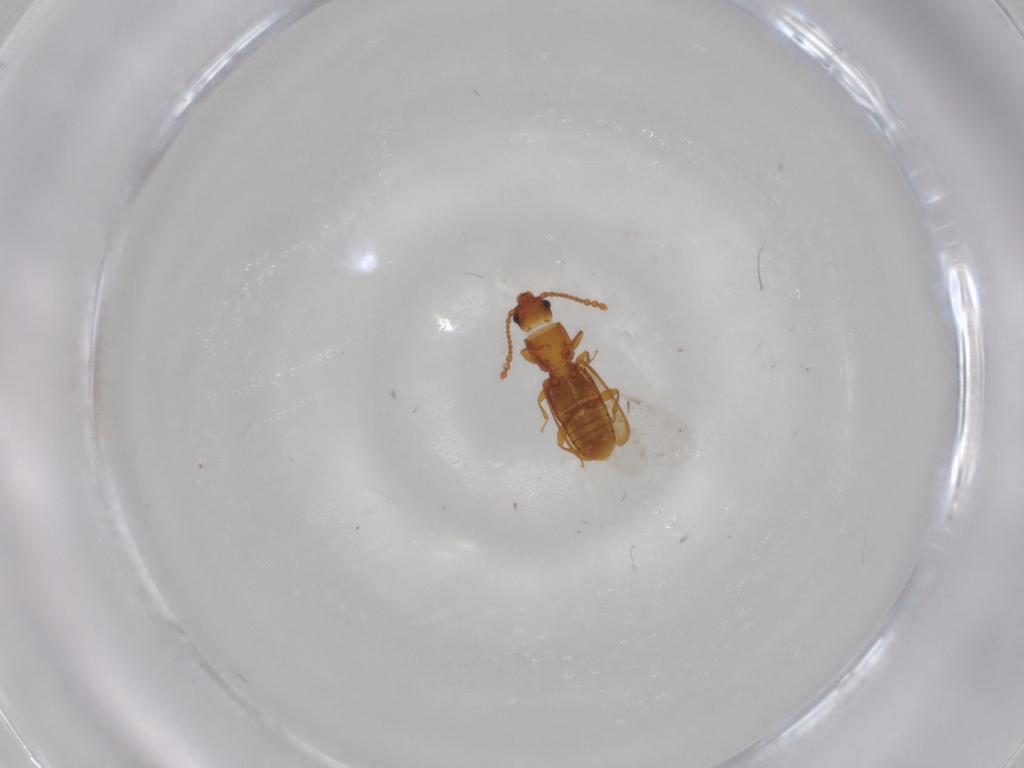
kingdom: Animalia
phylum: Arthropoda
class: Insecta
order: Coleoptera
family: Laemophloeidae
